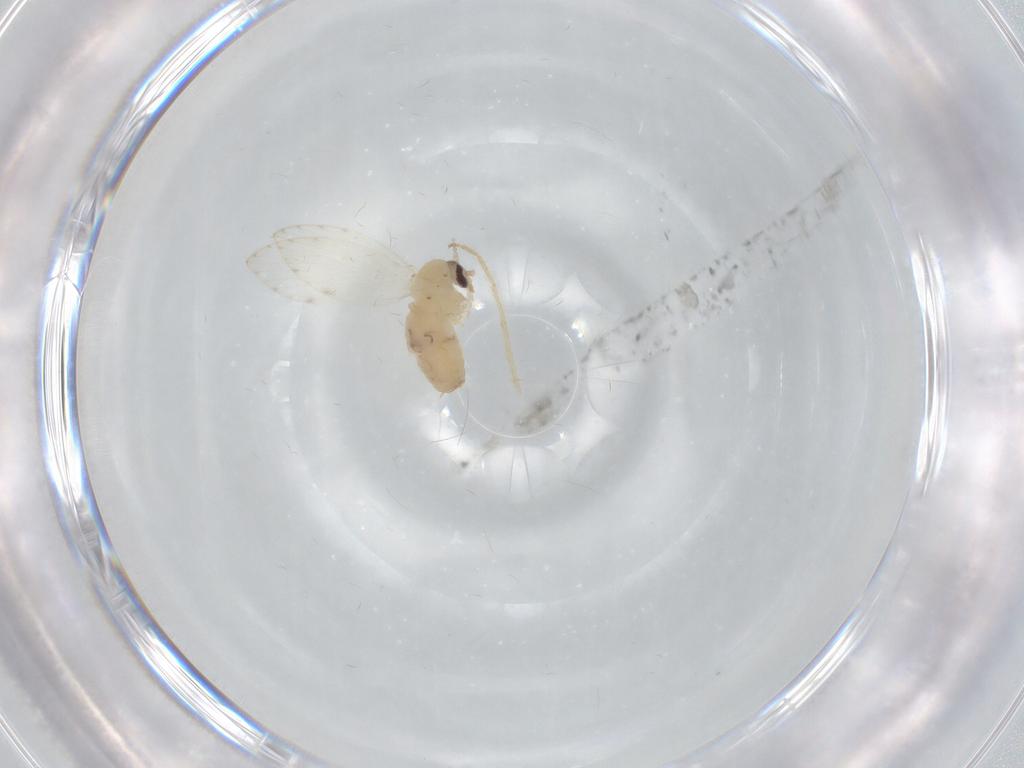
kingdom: Animalia
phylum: Arthropoda
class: Insecta
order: Diptera
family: Psychodidae
